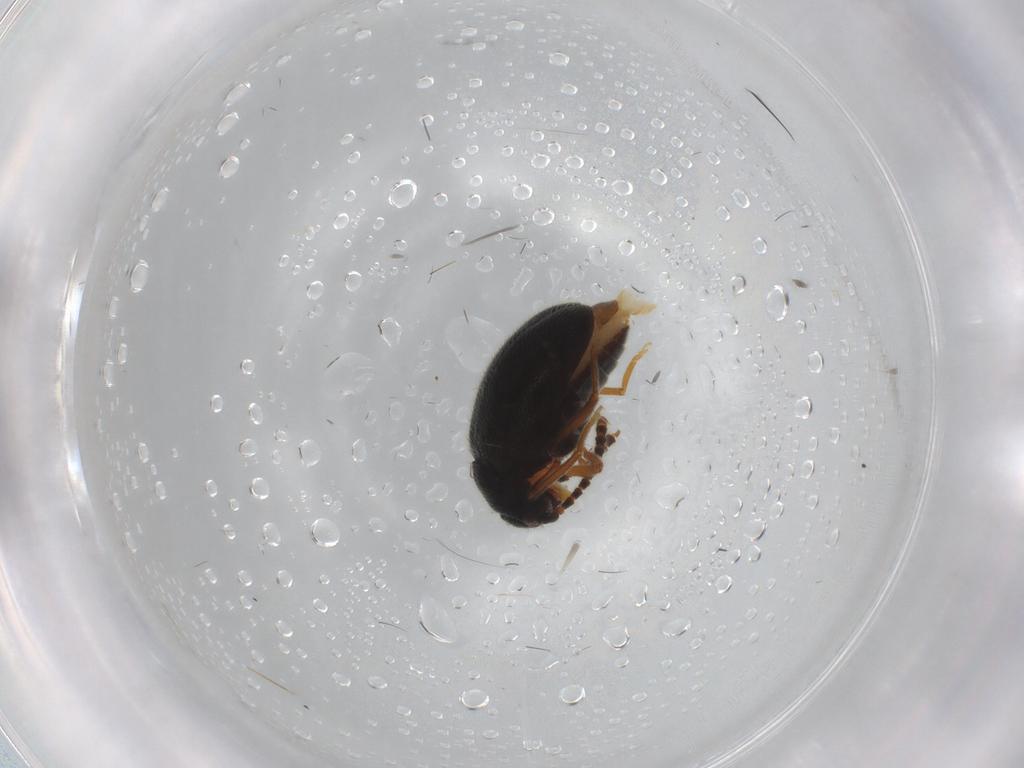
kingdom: Animalia
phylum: Arthropoda
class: Insecta
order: Coleoptera
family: Aderidae
